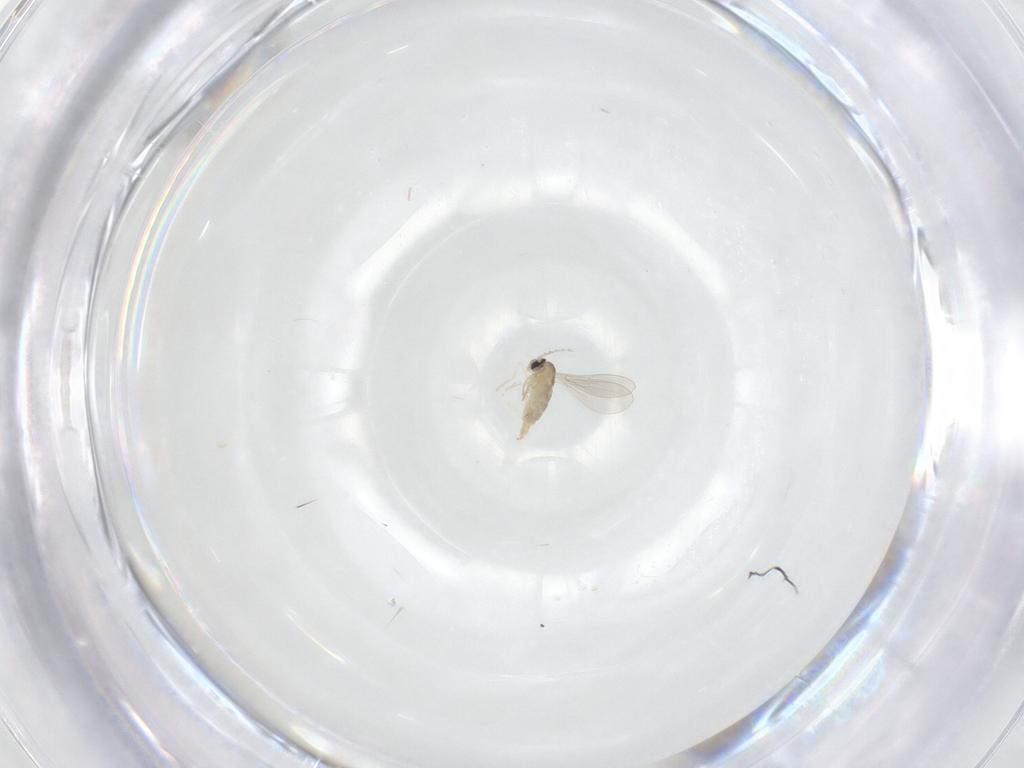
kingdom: Animalia
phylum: Arthropoda
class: Insecta
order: Diptera
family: Cecidomyiidae
